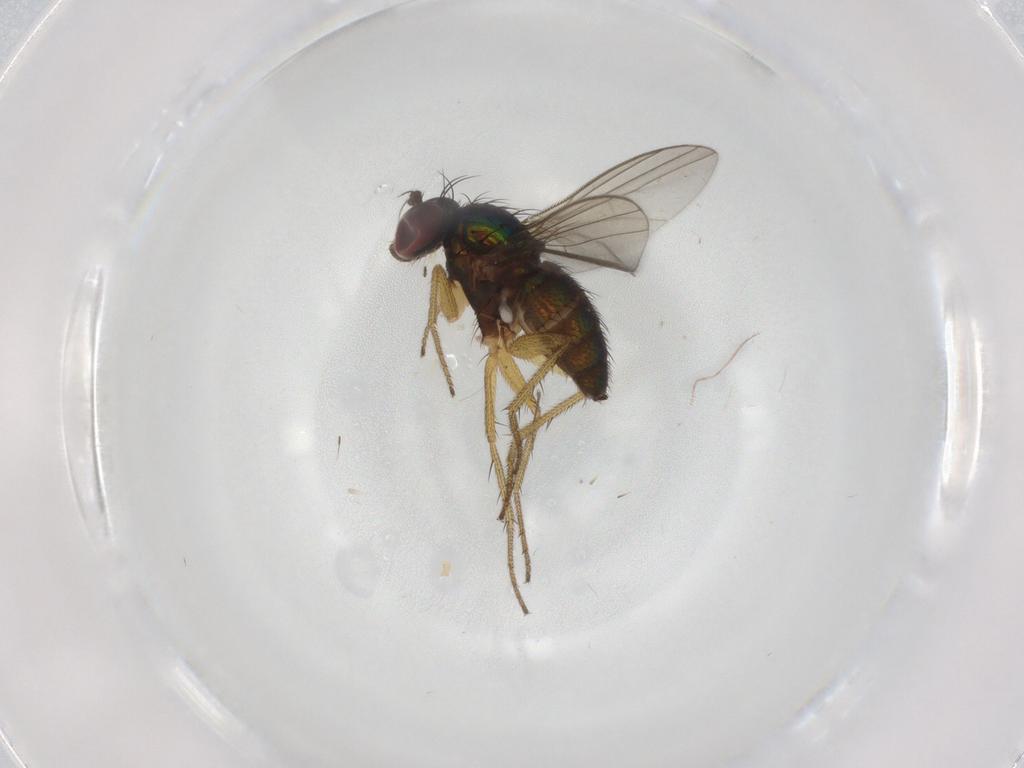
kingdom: Animalia
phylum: Arthropoda
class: Insecta
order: Diptera
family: Chironomidae
